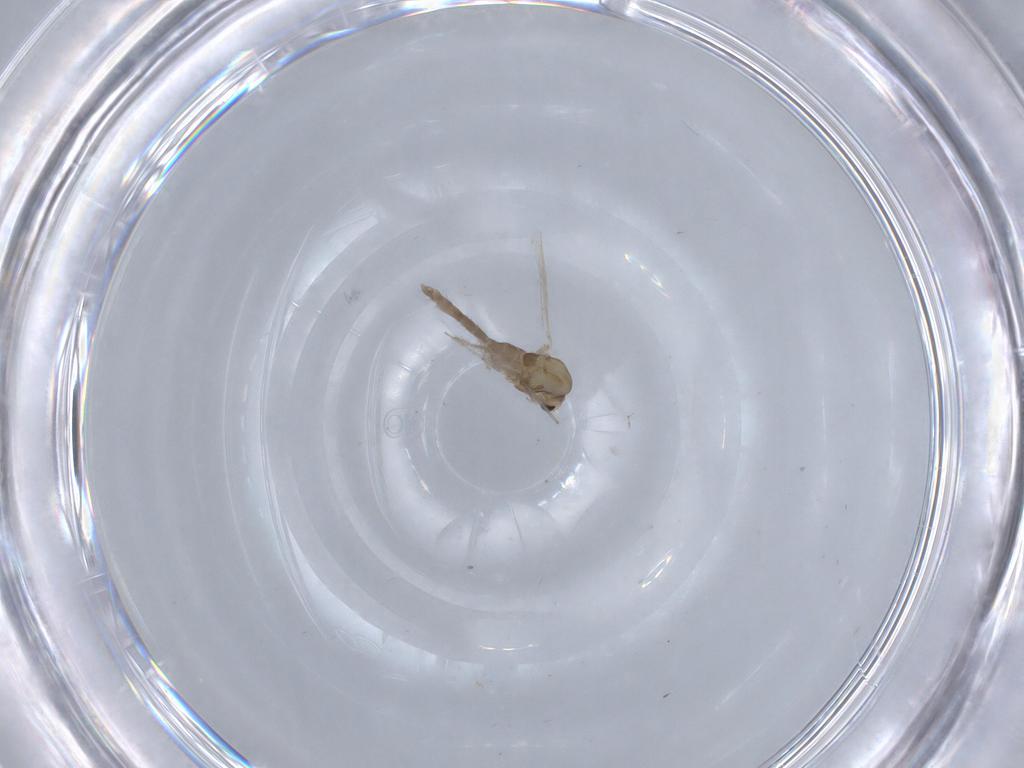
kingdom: Animalia
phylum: Arthropoda
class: Insecta
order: Diptera
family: Chironomidae
